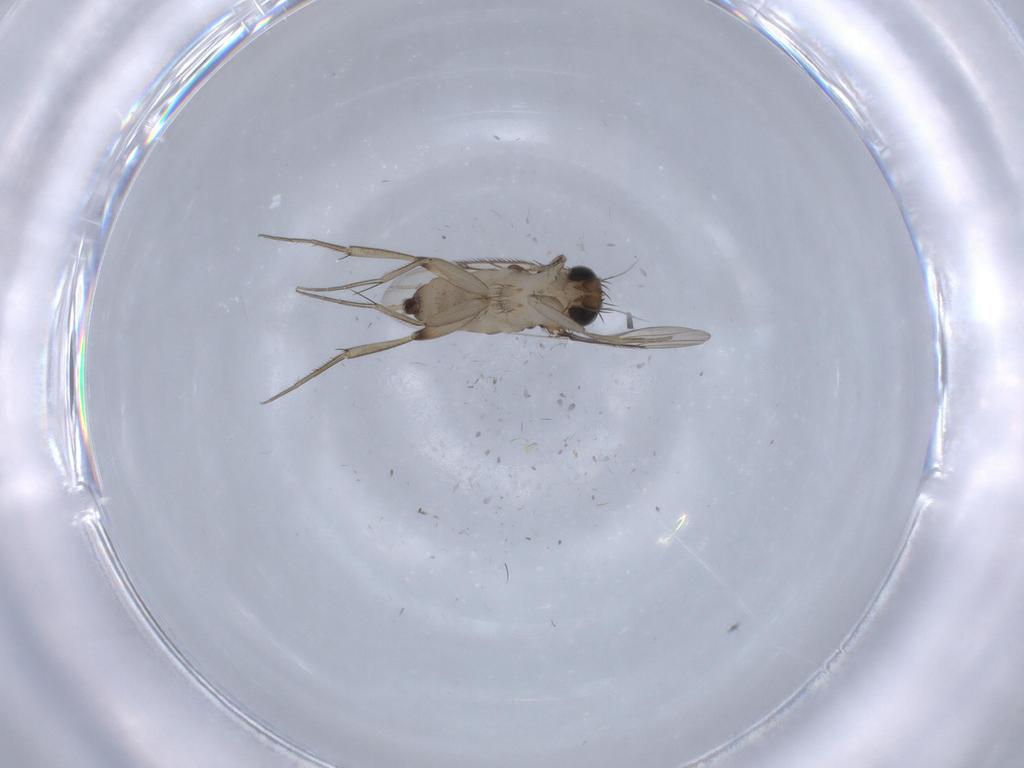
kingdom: Animalia
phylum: Arthropoda
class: Insecta
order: Diptera
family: Phoridae
